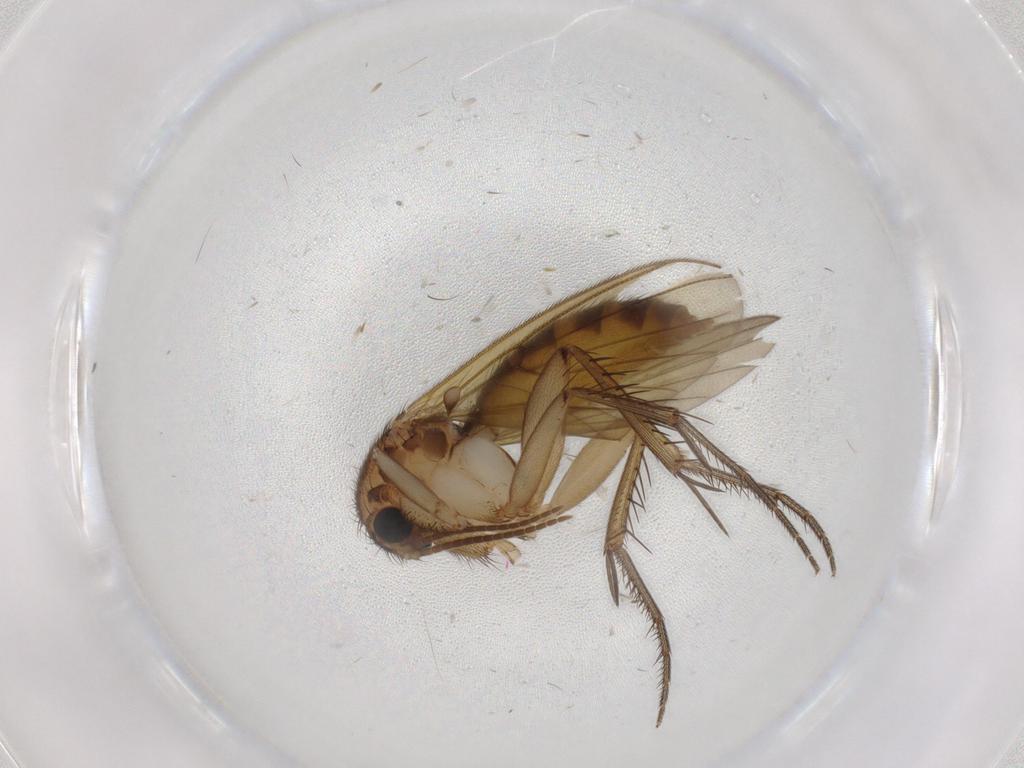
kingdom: Animalia
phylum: Arthropoda
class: Insecta
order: Diptera
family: Mycetophilidae
